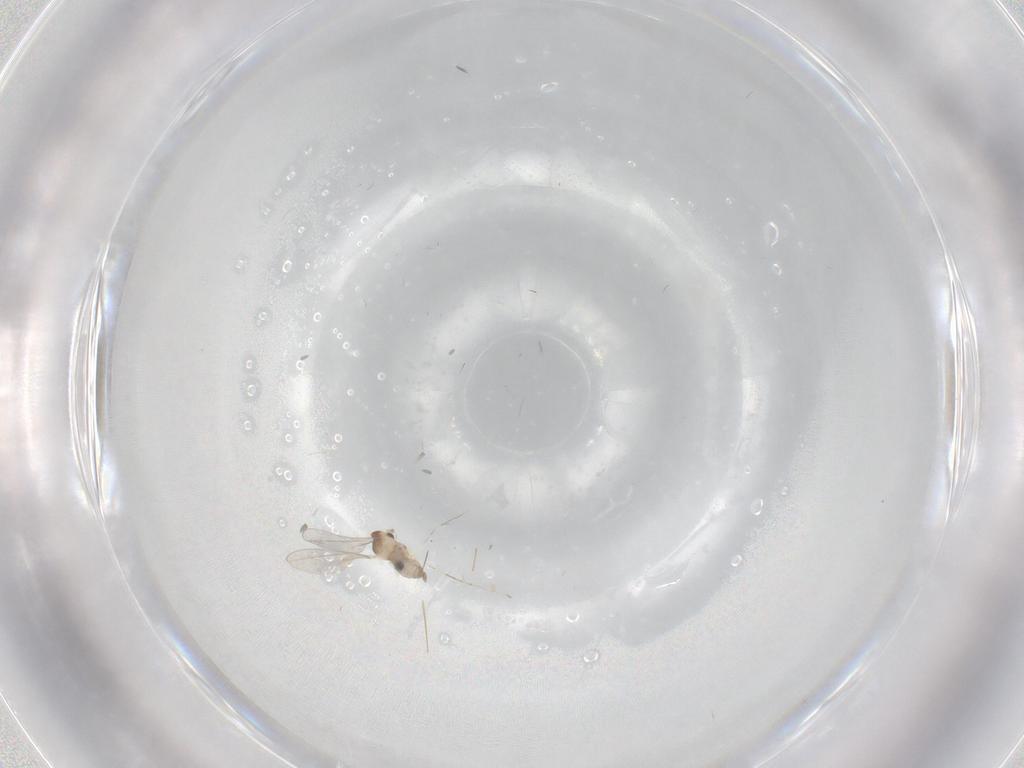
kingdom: Animalia
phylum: Arthropoda
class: Insecta
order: Diptera
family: Cecidomyiidae
